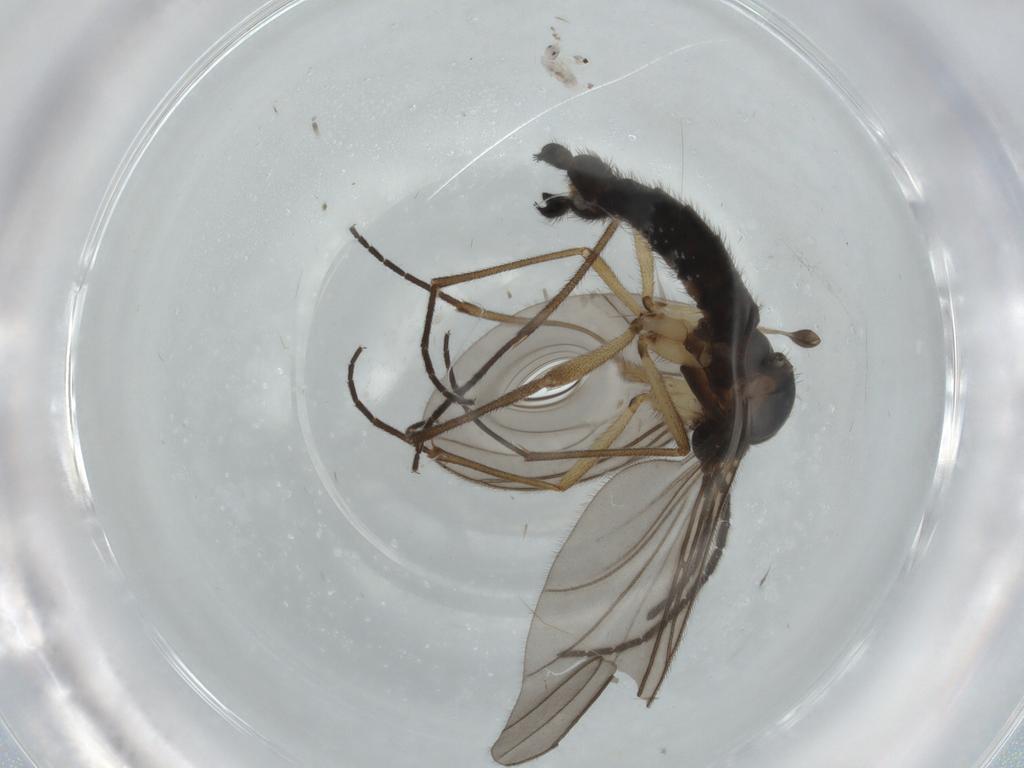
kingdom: Animalia
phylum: Arthropoda
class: Insecta
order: Diptera
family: Sciaridae
